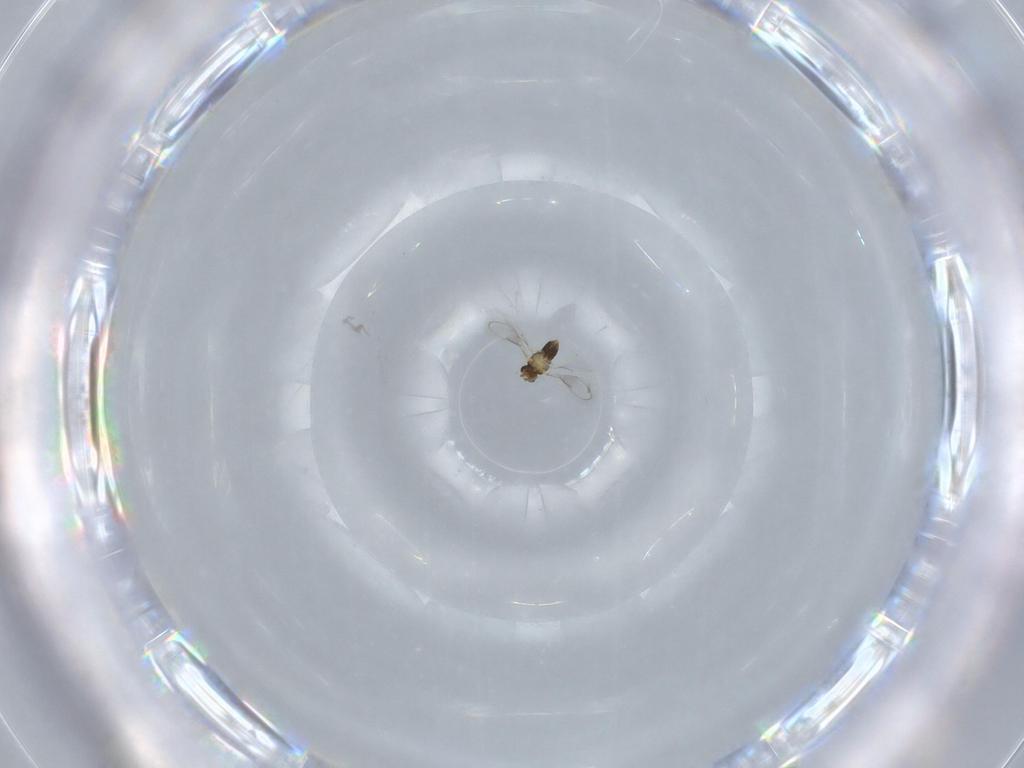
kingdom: Animalia
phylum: Arthropoda
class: Insecta
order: Hymenoptera
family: Aphelinidae
